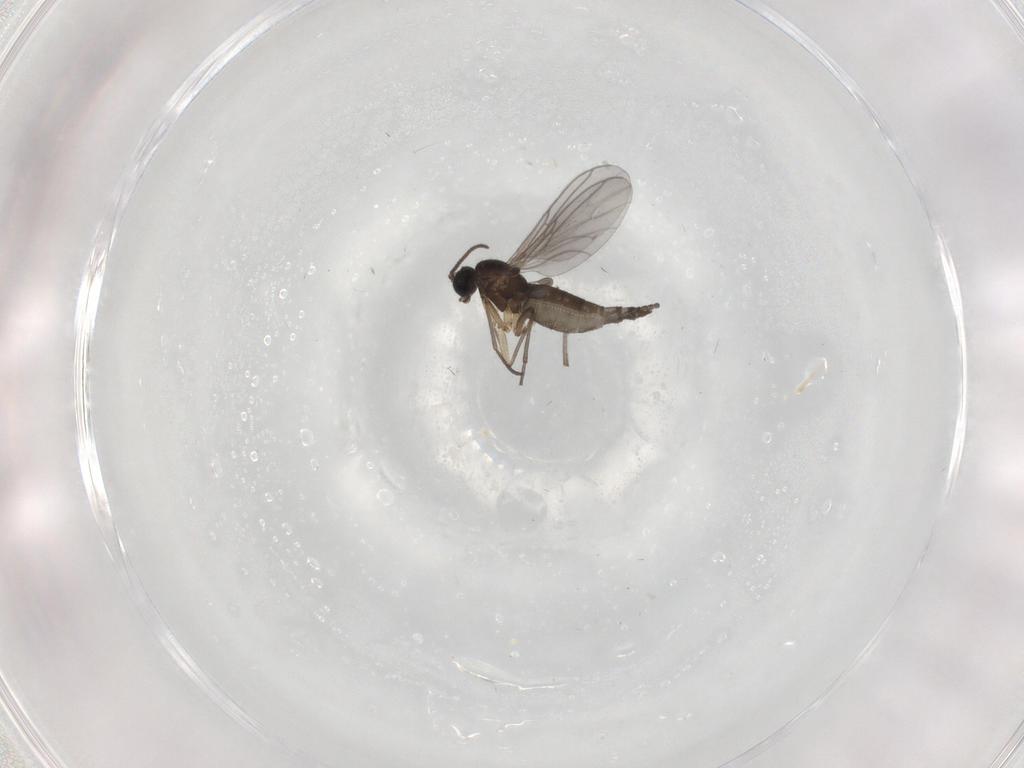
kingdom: Animalia
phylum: Arthropoda
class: Insecta
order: Diptera
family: Sciaridae
